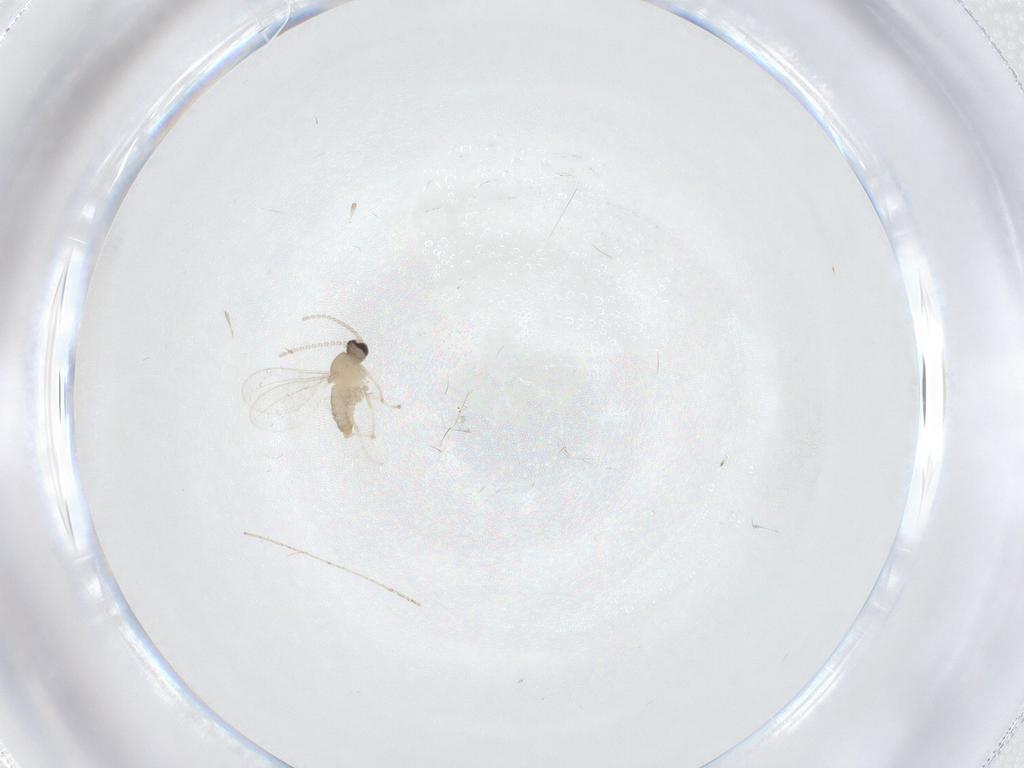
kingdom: Animalia
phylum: Arthropoda
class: Insecta
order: Diptera
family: Cecidomyiidae
